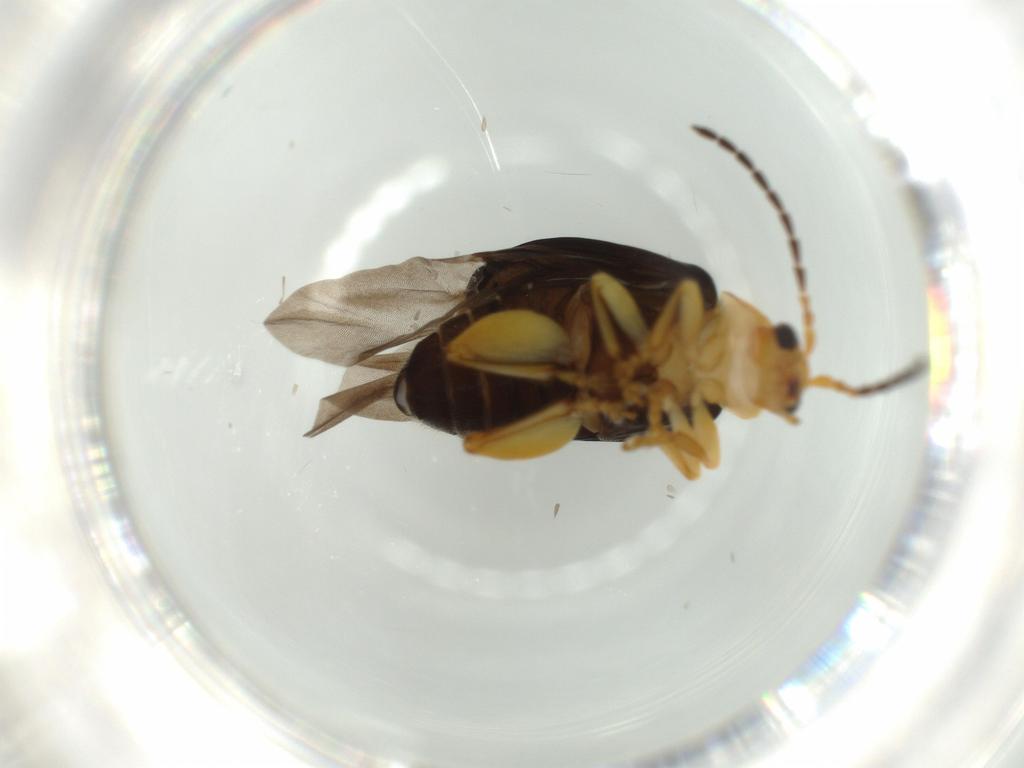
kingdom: Animalia
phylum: Arthropoda
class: Insecta
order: Coleoptera
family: Chrysomelidae
